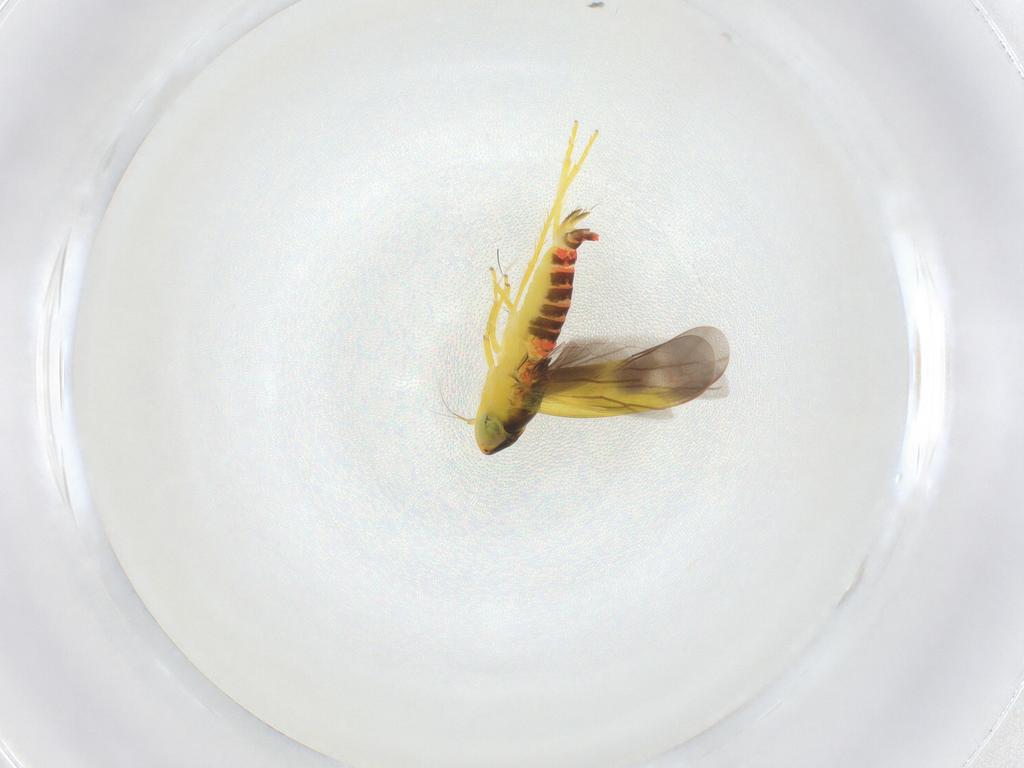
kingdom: Animalia
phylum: Arthropoda
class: Insecta
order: Hemiptera
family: Cicadellidae
